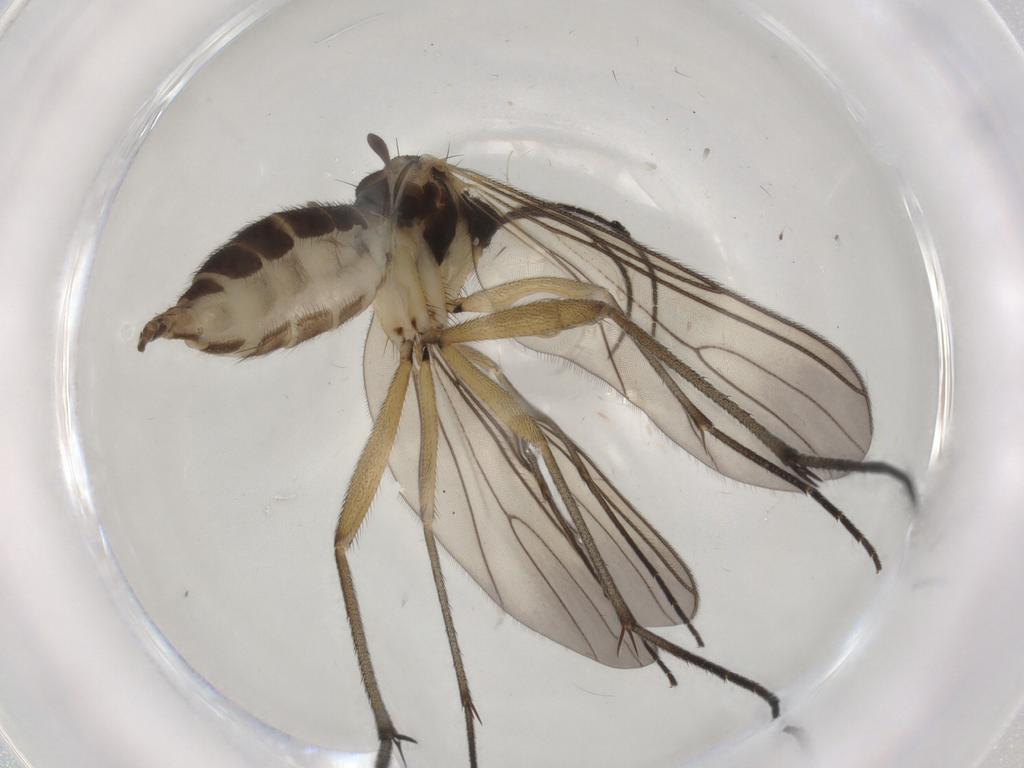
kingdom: Animalia
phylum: Arthropoda
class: Insecta
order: Diptera
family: Sciaridae
